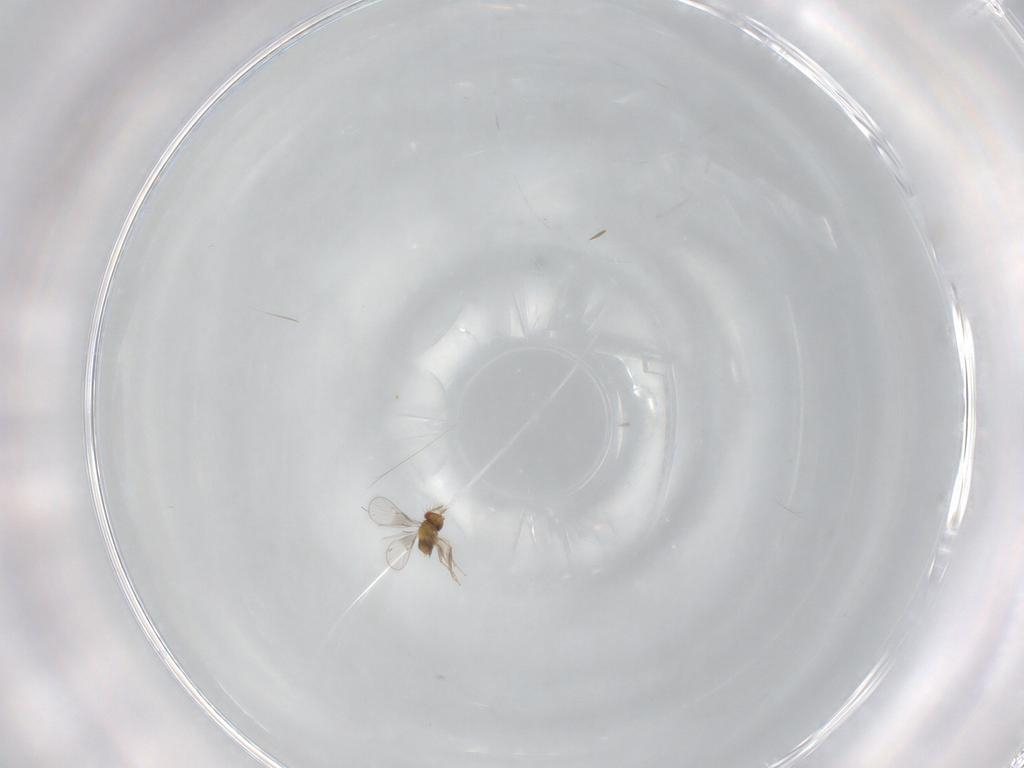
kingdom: Animalia
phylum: Arthropoda
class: Insecta
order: Hymenoptera
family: Trichogrammatidae
